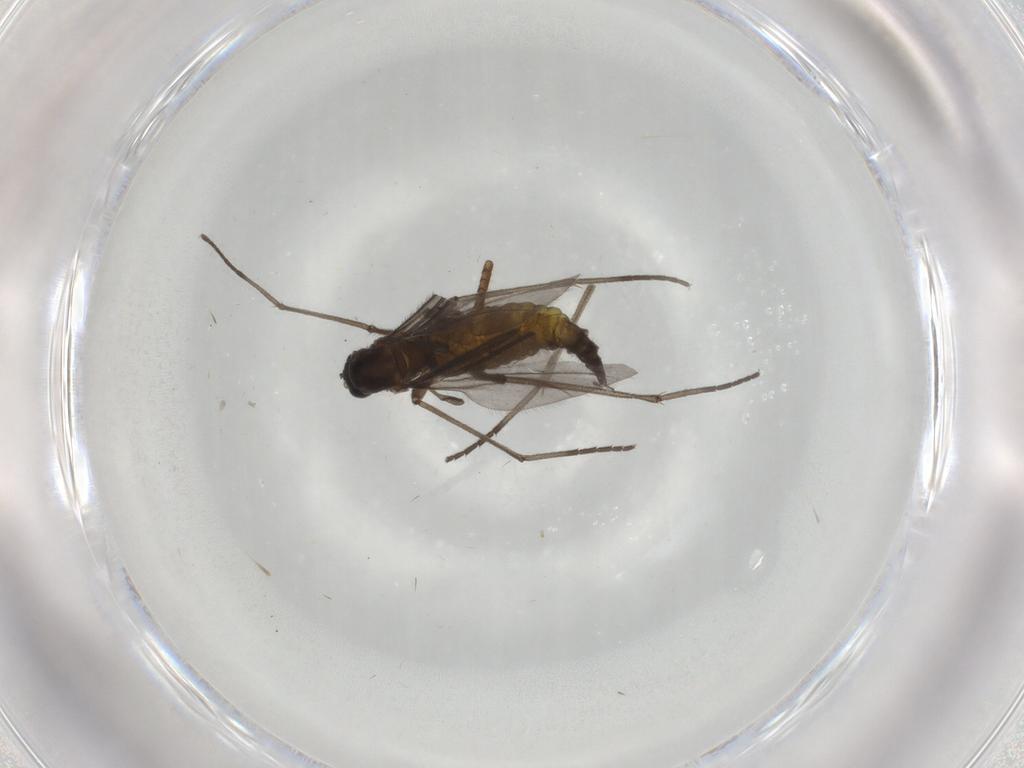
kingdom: Animalia
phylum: Arthropoda
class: Insecta
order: Diptera
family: Sciaridae
